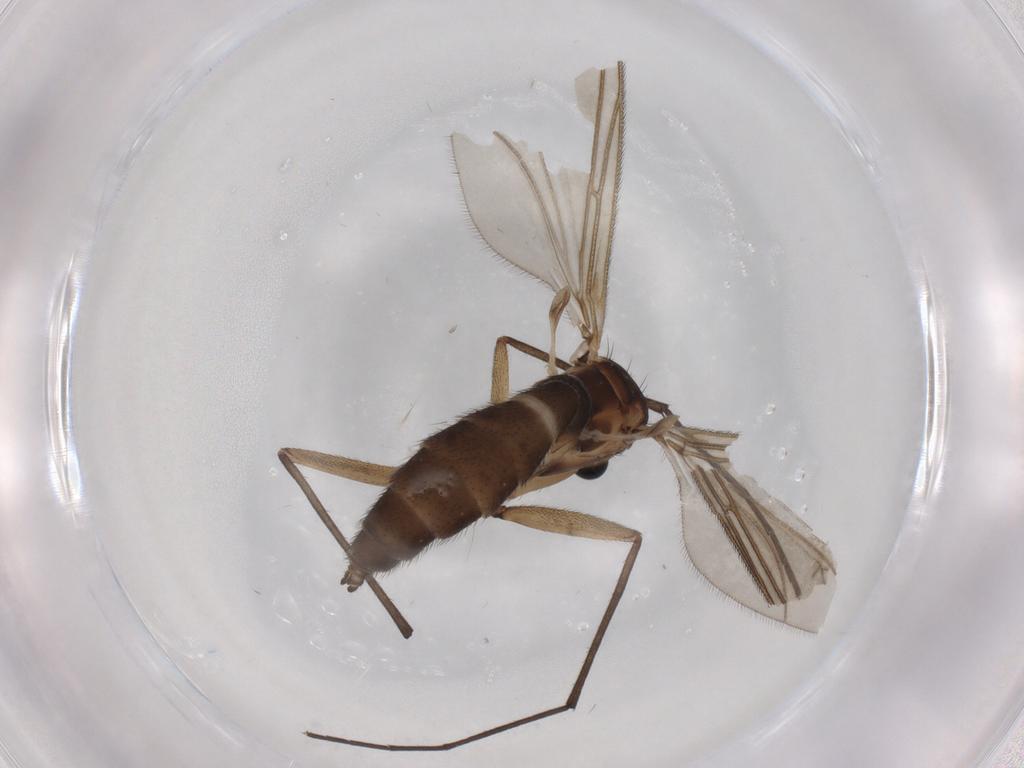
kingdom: Animalia
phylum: Arthropoda
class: Insecta
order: Diptera
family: Sciaridae
